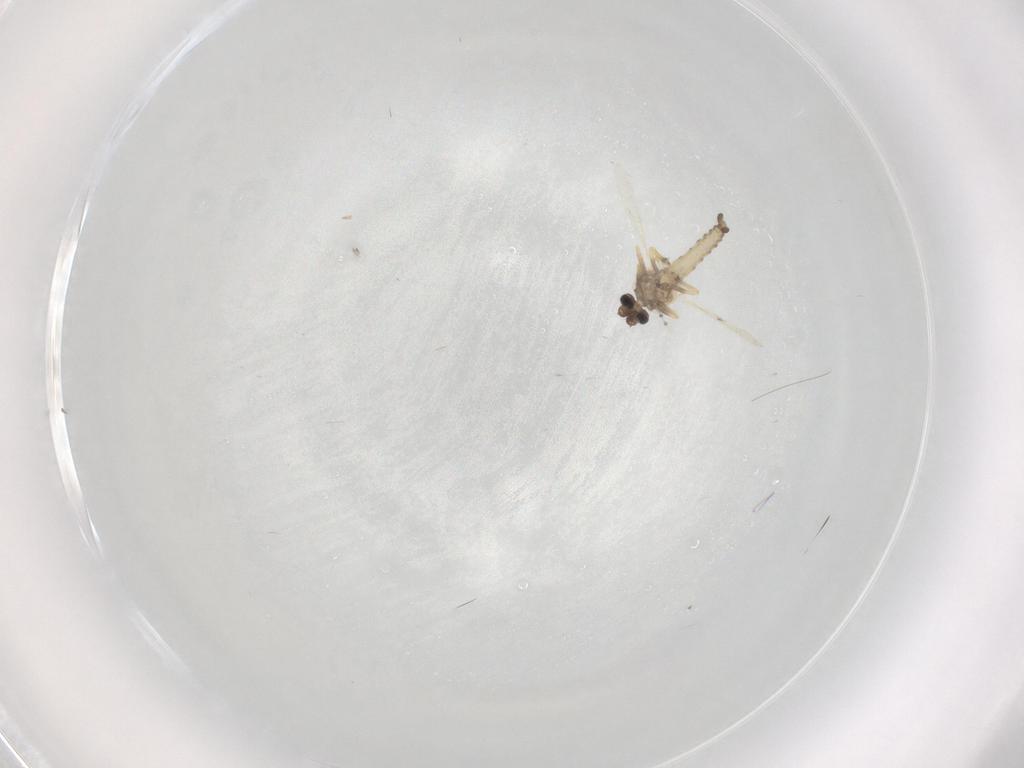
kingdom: Animalia
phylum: Arthropoda
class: Insecta
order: Diptera
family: Ceratopogonidae
